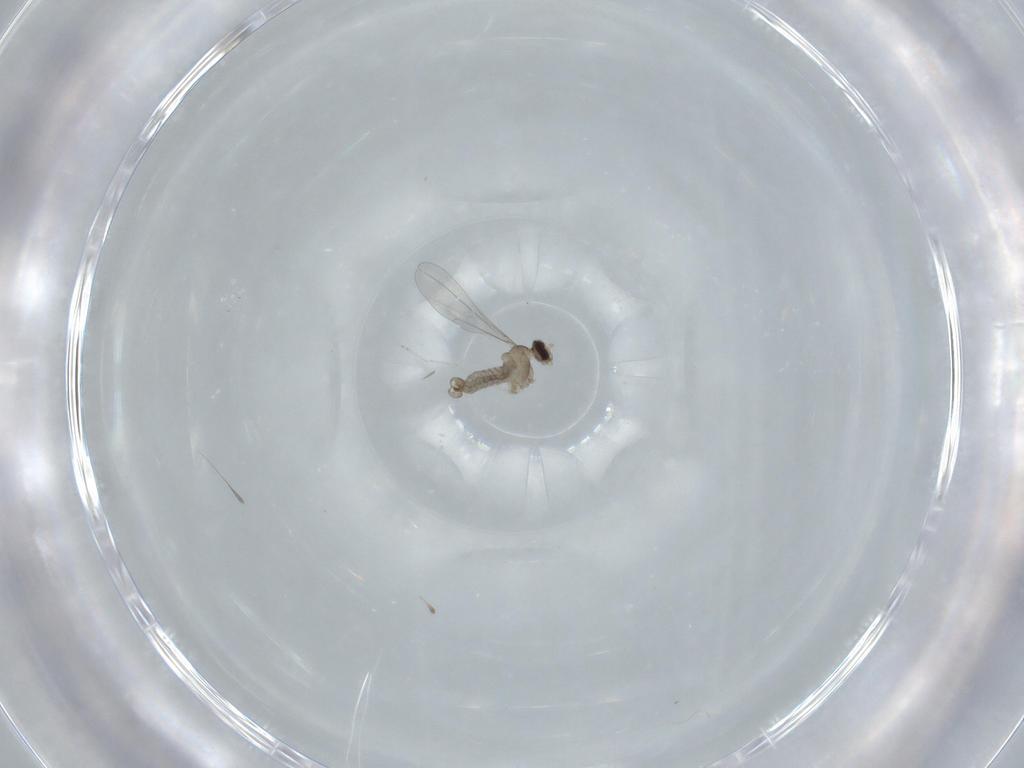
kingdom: Animalia
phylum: Arthropoda
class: Insecta
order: Diptera
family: Cecidomyiidae
